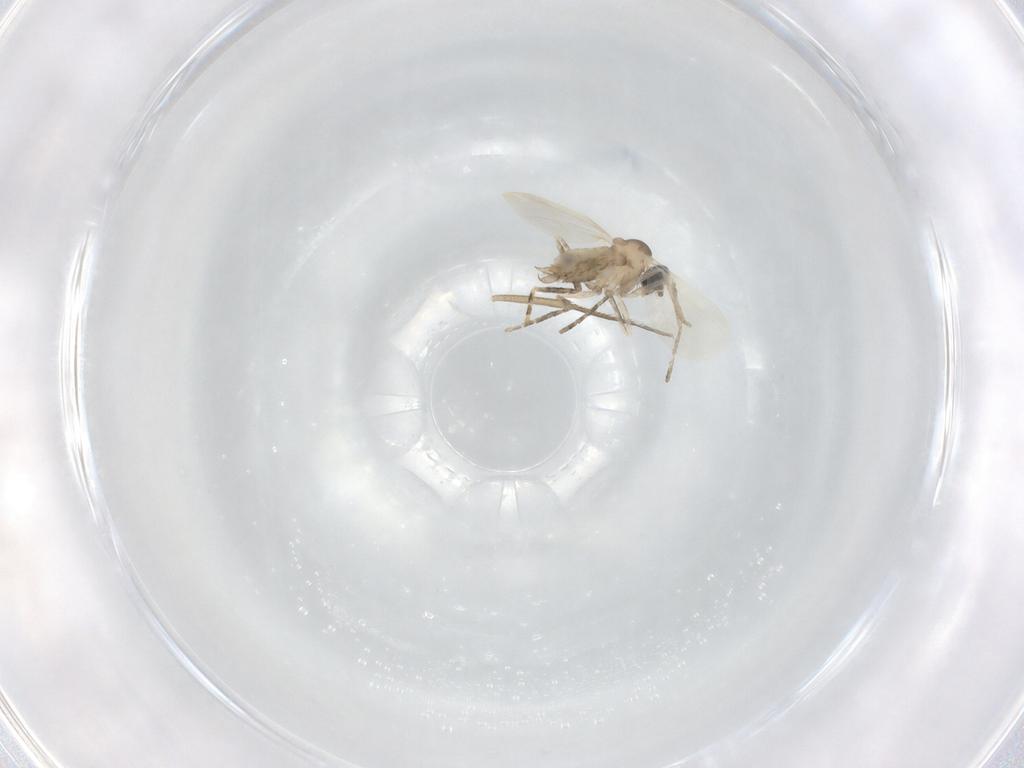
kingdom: Animalia
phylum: Arthropoda
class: Insecta
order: Diptera
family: Cecidomyiidae
